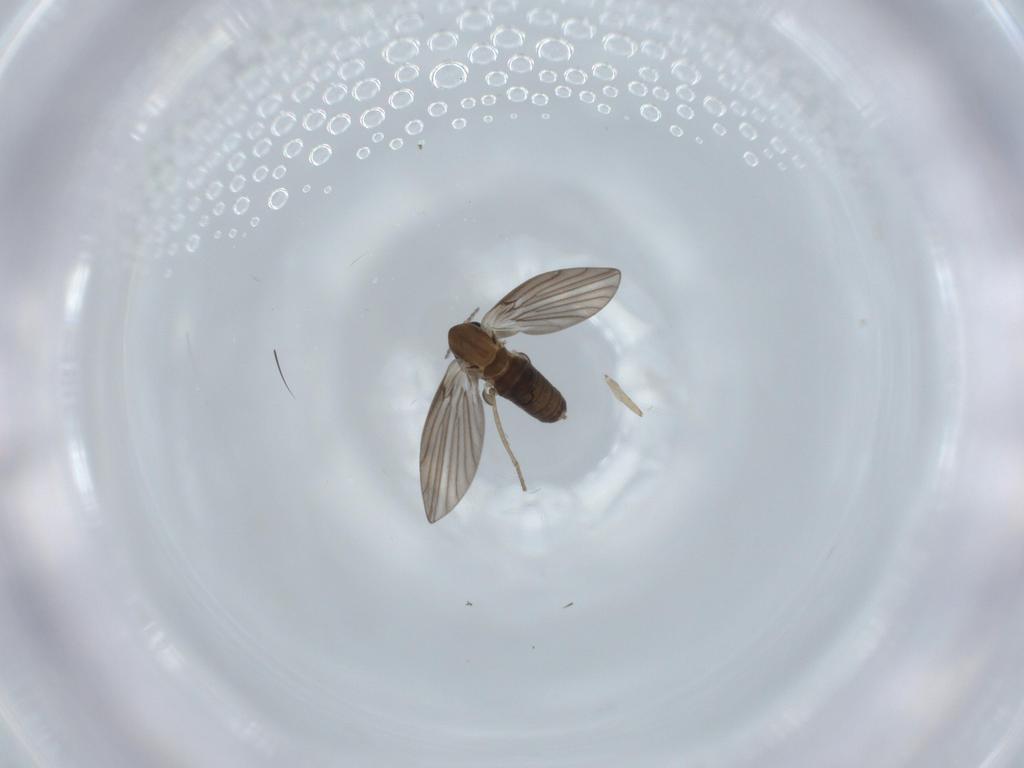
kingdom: Animalia
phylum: Arthropoda
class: Insecta
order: Diptera
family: Psychodidae
